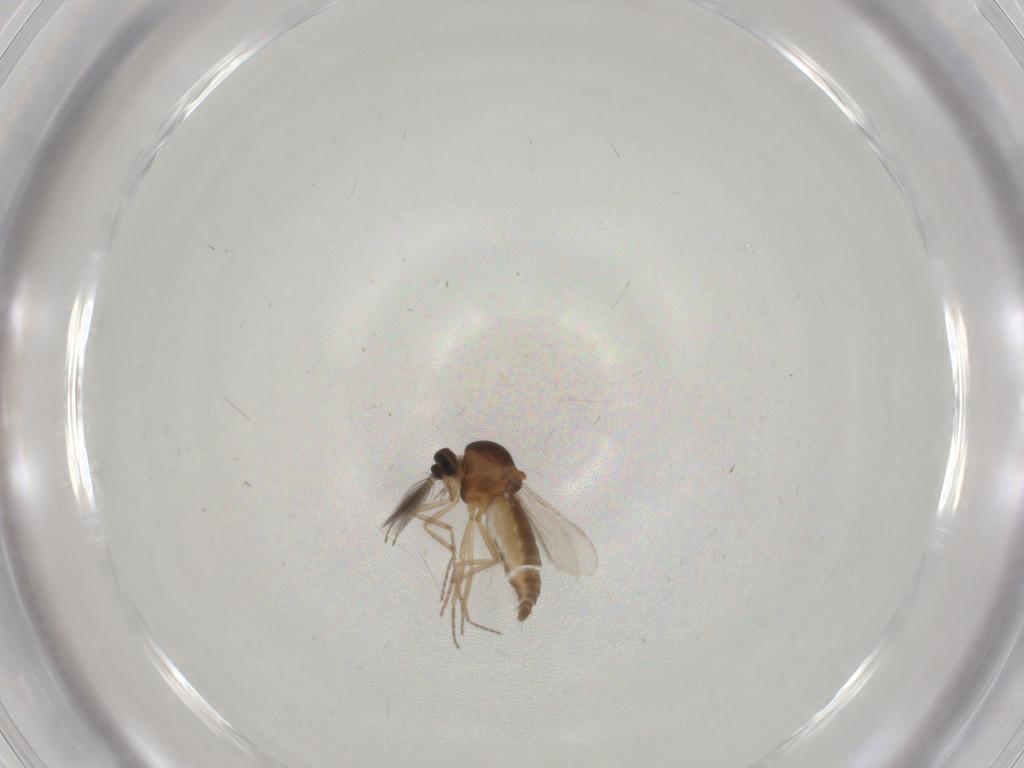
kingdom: Animalia
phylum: Arthropoda
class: Insecta
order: Diptera
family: Ceratopogonidae
